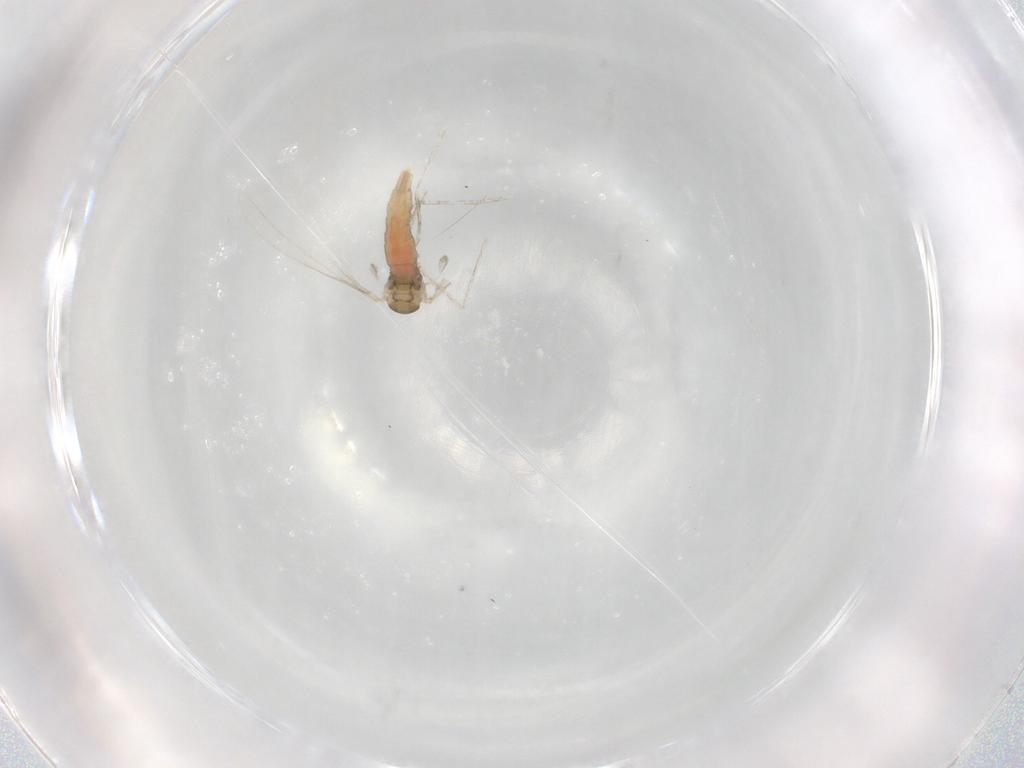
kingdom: Animalia
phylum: Arthropoda
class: Insecta
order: Diptera
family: Cecidomyiidae
